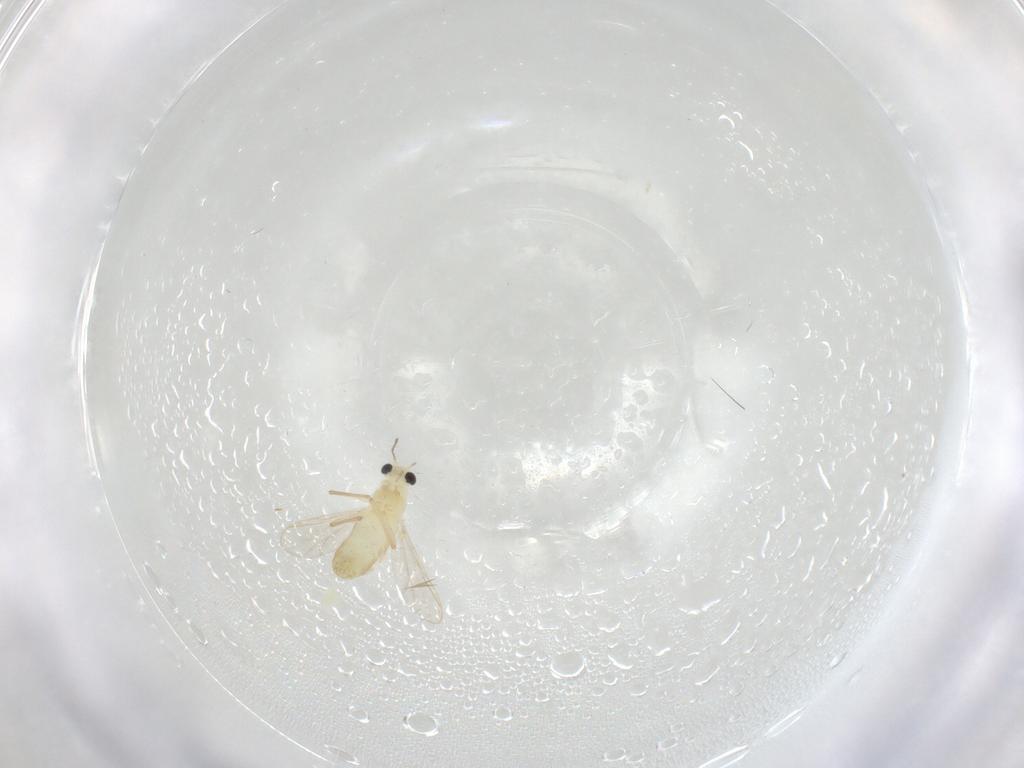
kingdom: Animalia
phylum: Arthropoda
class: Insecta
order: Diptera
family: Chironomidae
